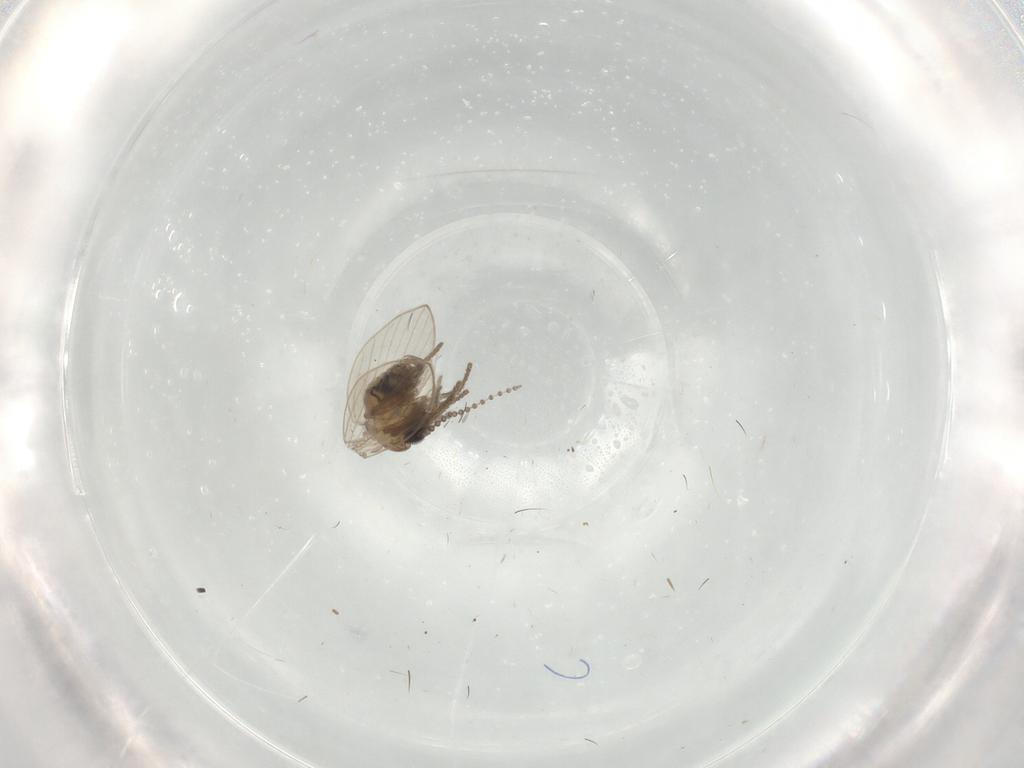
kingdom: Animalia
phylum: Arthropoda
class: Insecta
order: Diptera
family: Psychodidae
